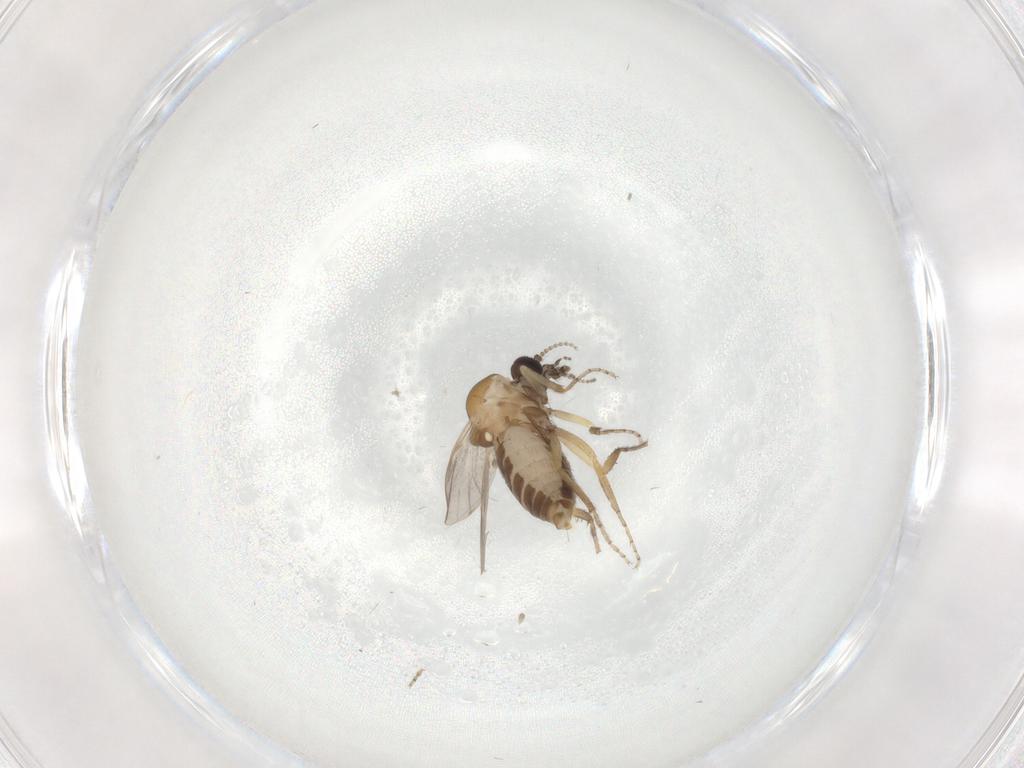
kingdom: Animalia
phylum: Arthropoda
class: Insecta
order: Diptera
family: Ceratopogonidae
